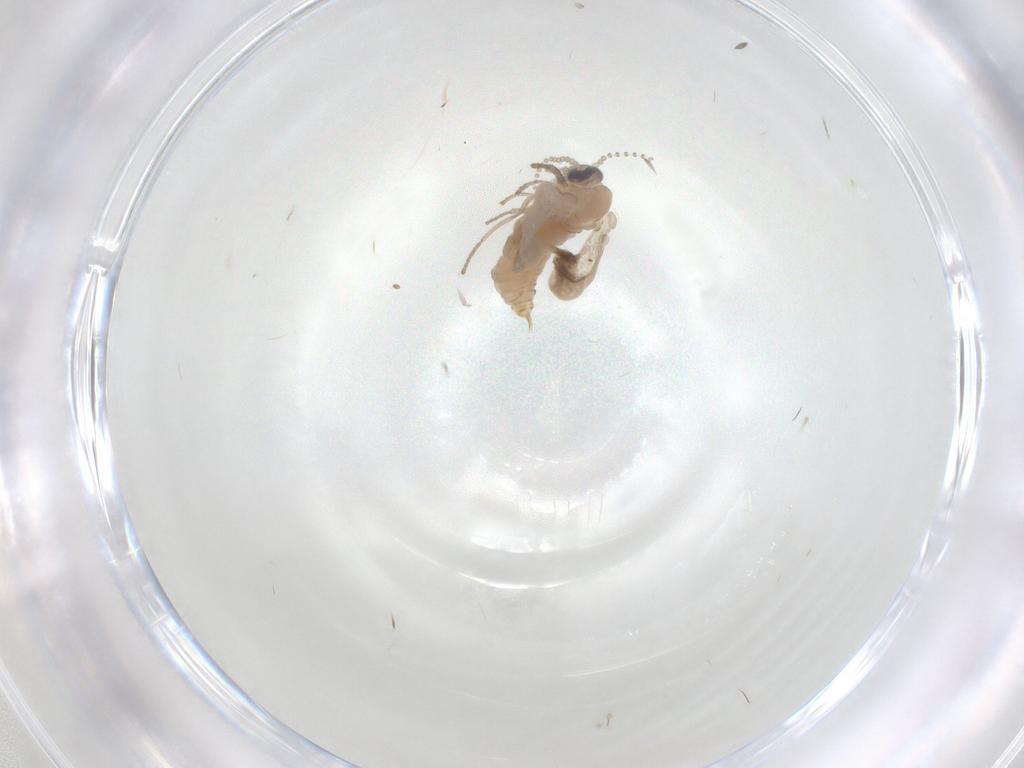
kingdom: Animalia
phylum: Arthropoda
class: Insecta
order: Diptera
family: Psychodidae
